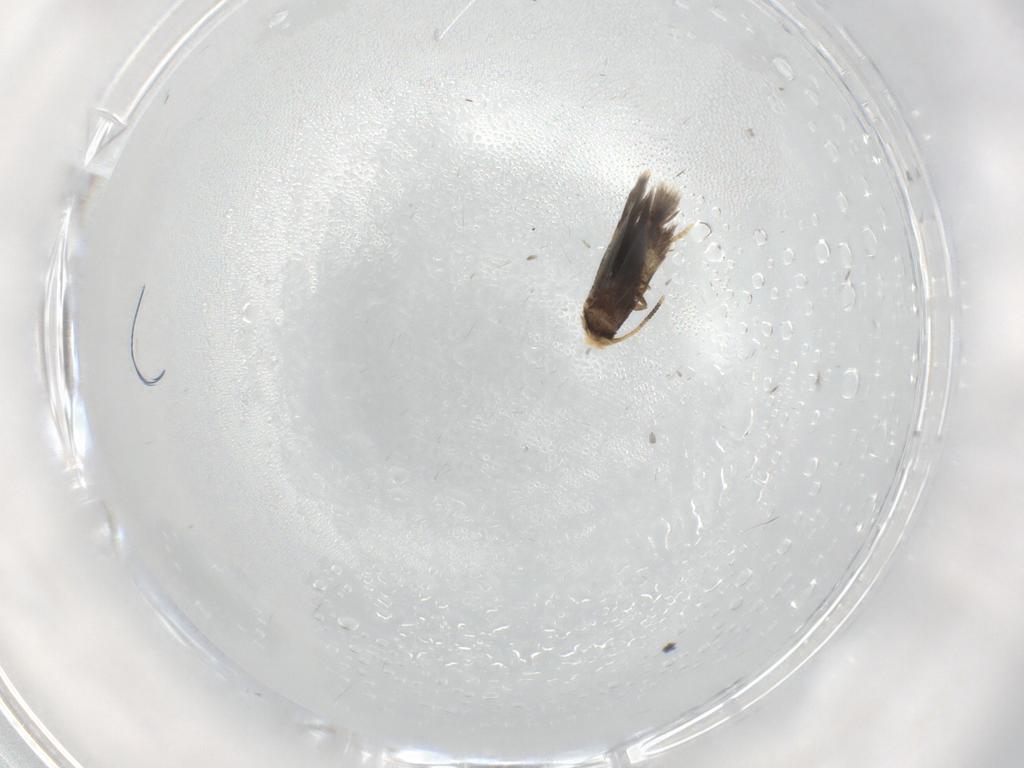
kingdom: Animalia
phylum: Arthropoda
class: Insecta
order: Lepidoptera
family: Nepticulidae
